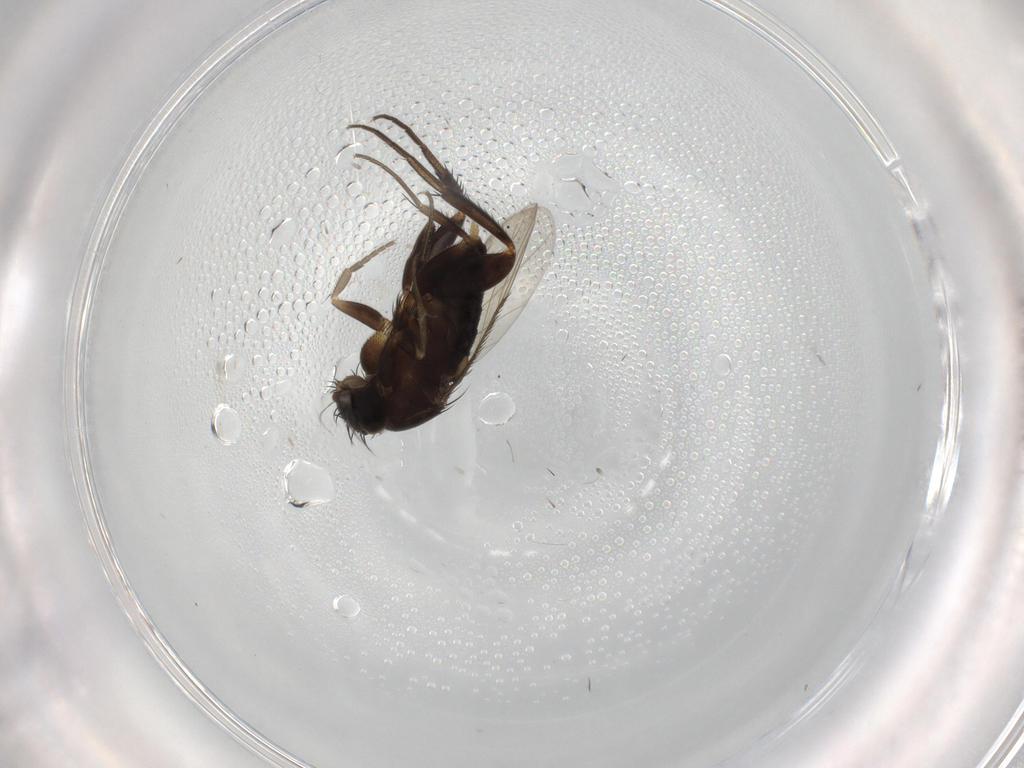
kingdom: Animalia
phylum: Arthropoda
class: Insecta
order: Diptera
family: Phoridae
